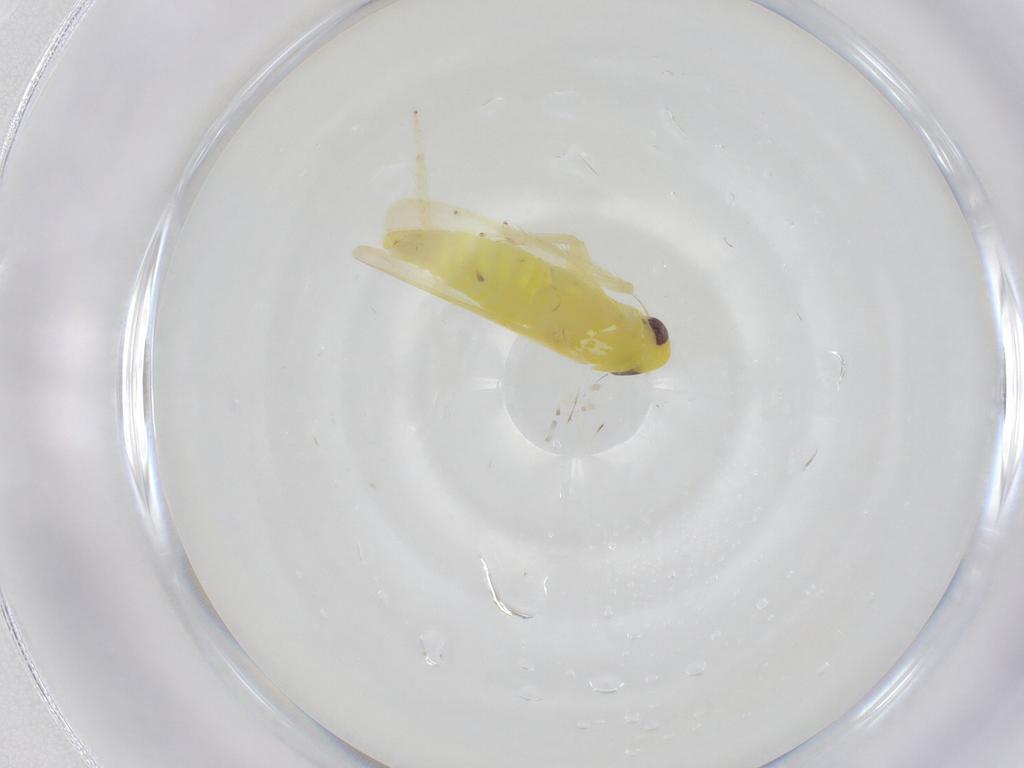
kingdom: Animalia
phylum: Arthropoda
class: Insecta
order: Hemiptera
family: Cicadellidae
